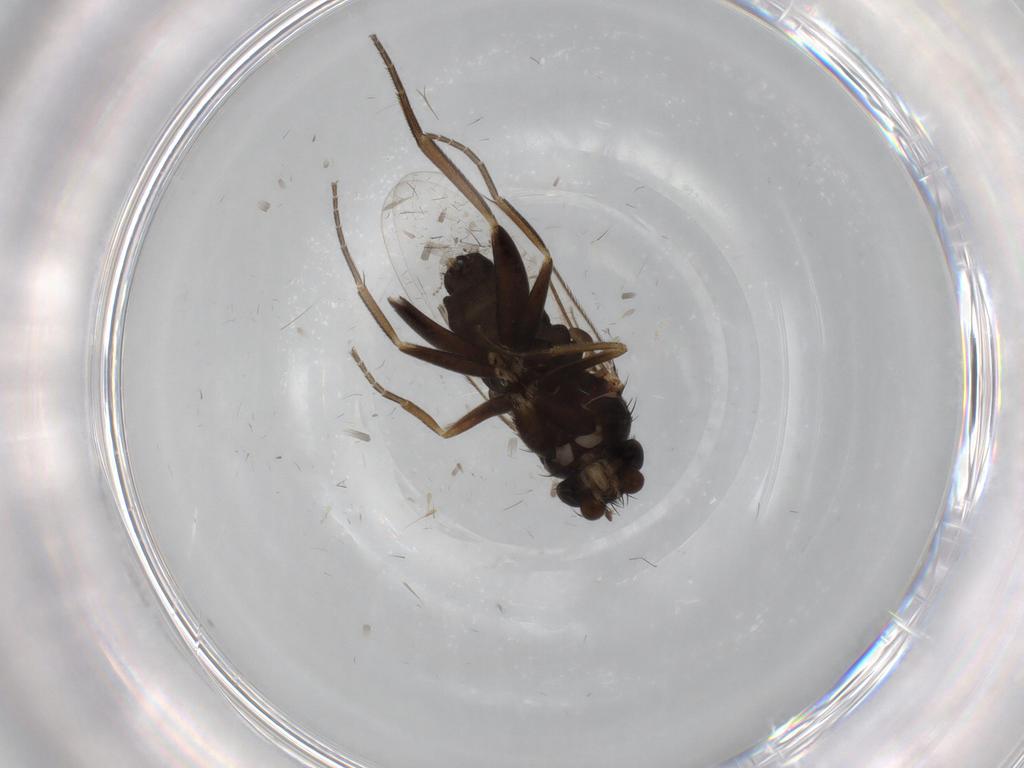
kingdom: Animalia
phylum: Arthropoda
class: Insecta
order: Diptera
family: Phoridae
